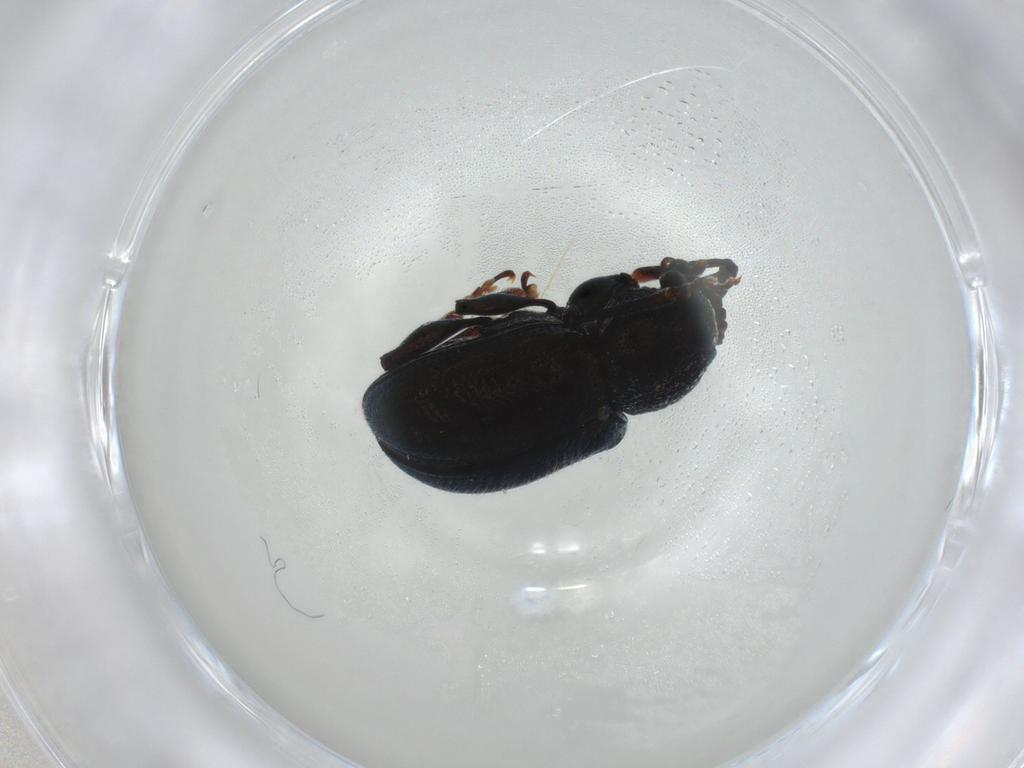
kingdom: Animalia
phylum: Arthropoda
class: Insecta
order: Coleoptera
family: Chrysomelidae
